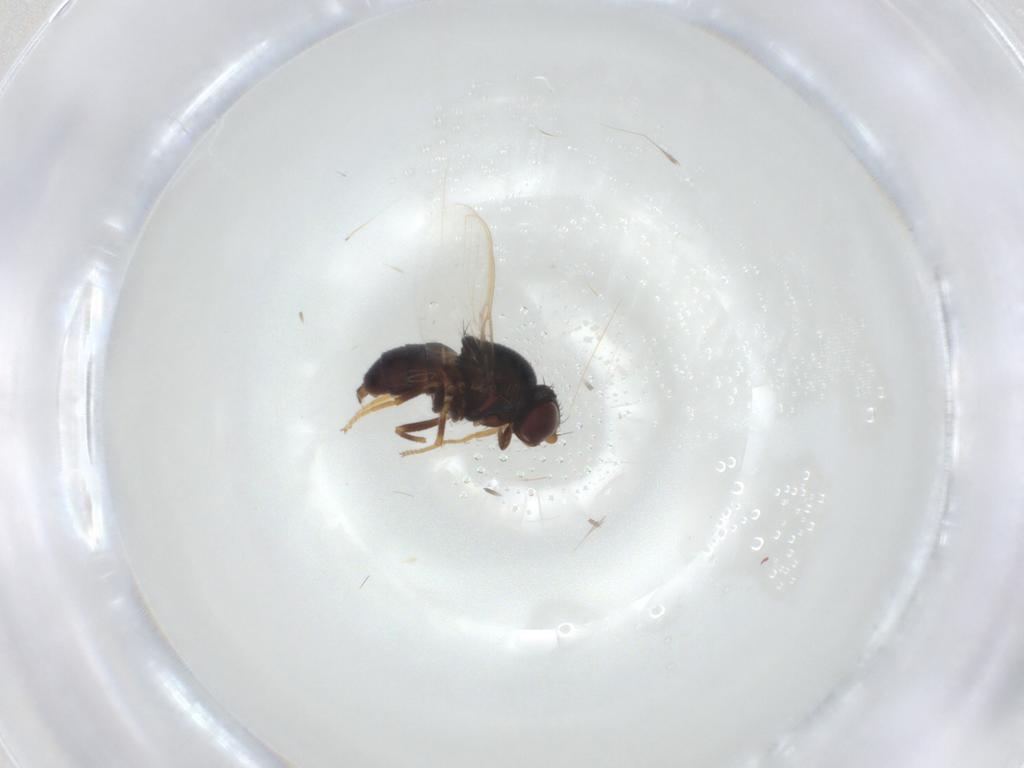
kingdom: Animalia
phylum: Arthropoda
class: Insecta
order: Diptera
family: Chloropidae
